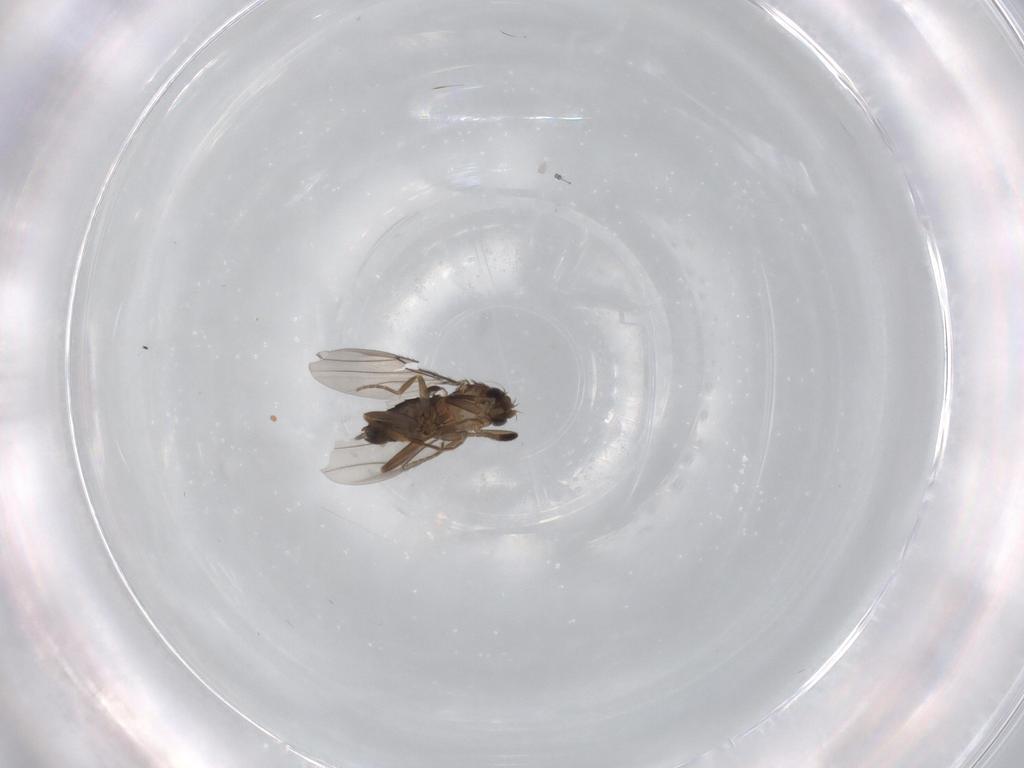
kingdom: Animalia
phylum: Arthropoda
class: Insecta
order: Diptera
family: Phoridae
